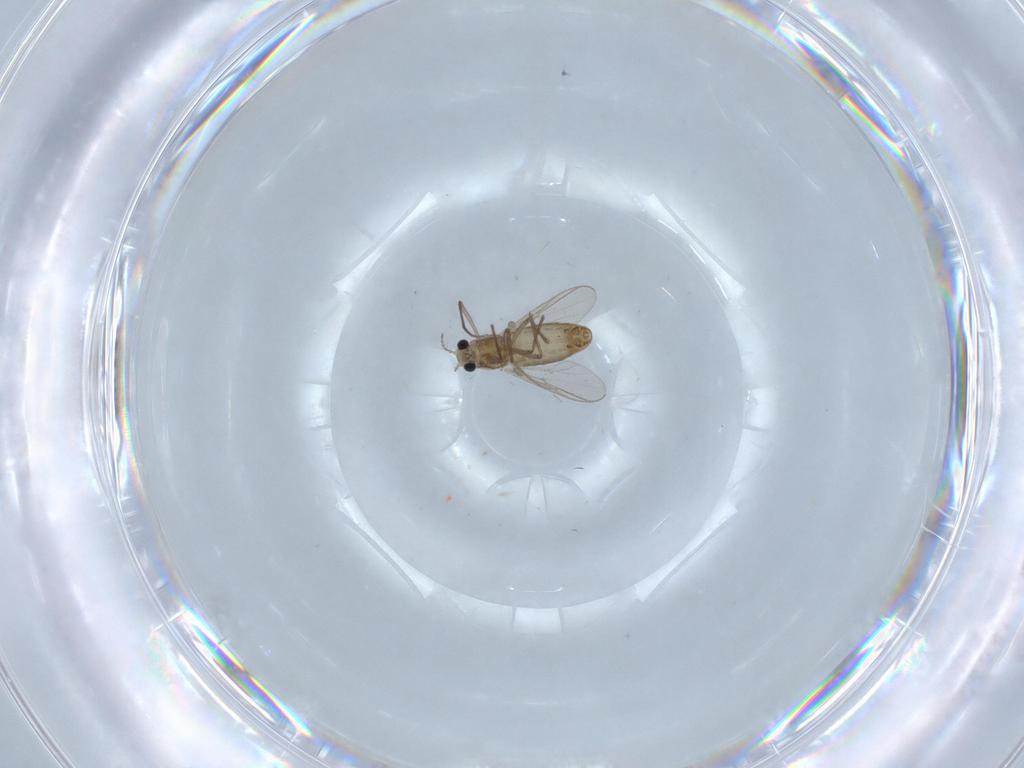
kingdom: Animalia
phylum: Arthropoda
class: Insecta
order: Diptera
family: Chironomidae
